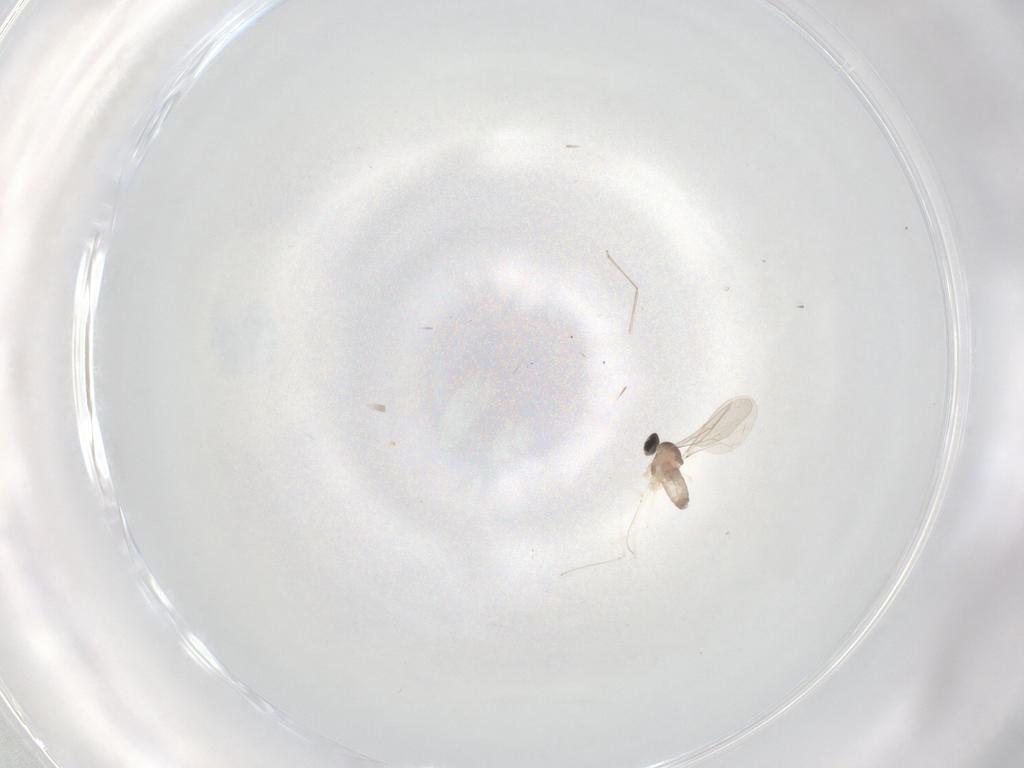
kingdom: Animalia
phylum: Arthropoda
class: Insecta
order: Diptera
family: Cecidomyiidae
